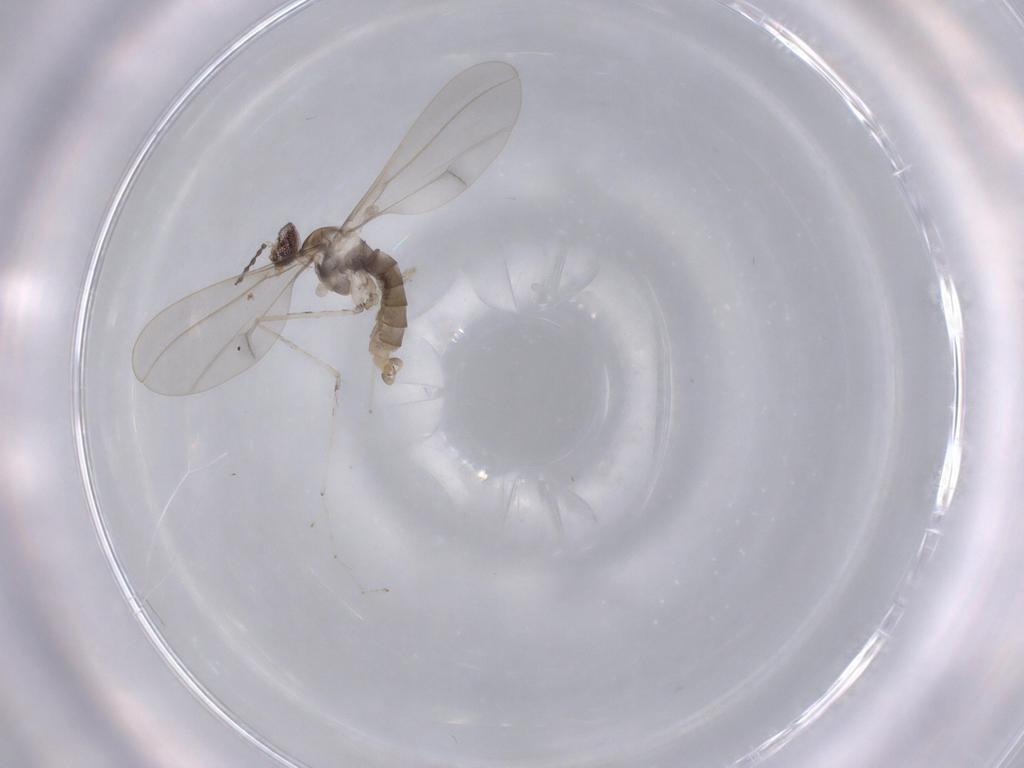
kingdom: Animalia
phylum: Arthropoda
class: Insecta
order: Diptera
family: Cecidomyiidae
